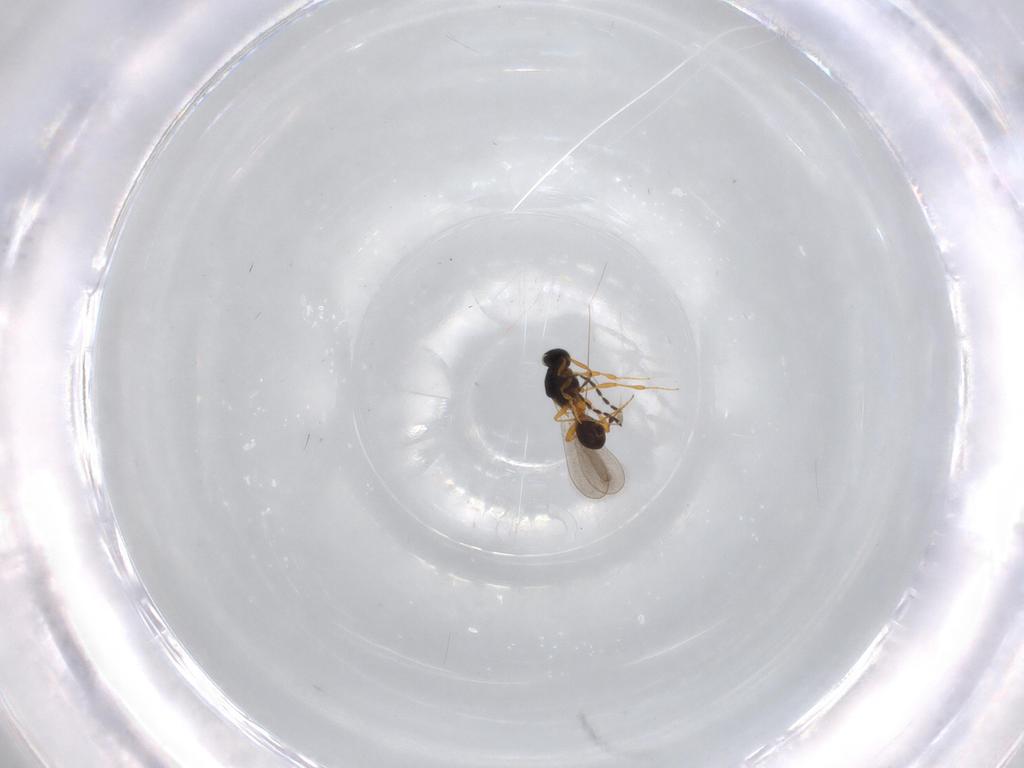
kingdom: Animalia
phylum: Arthropoda
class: Insecta
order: Hymenoptera
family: Platygastridae
